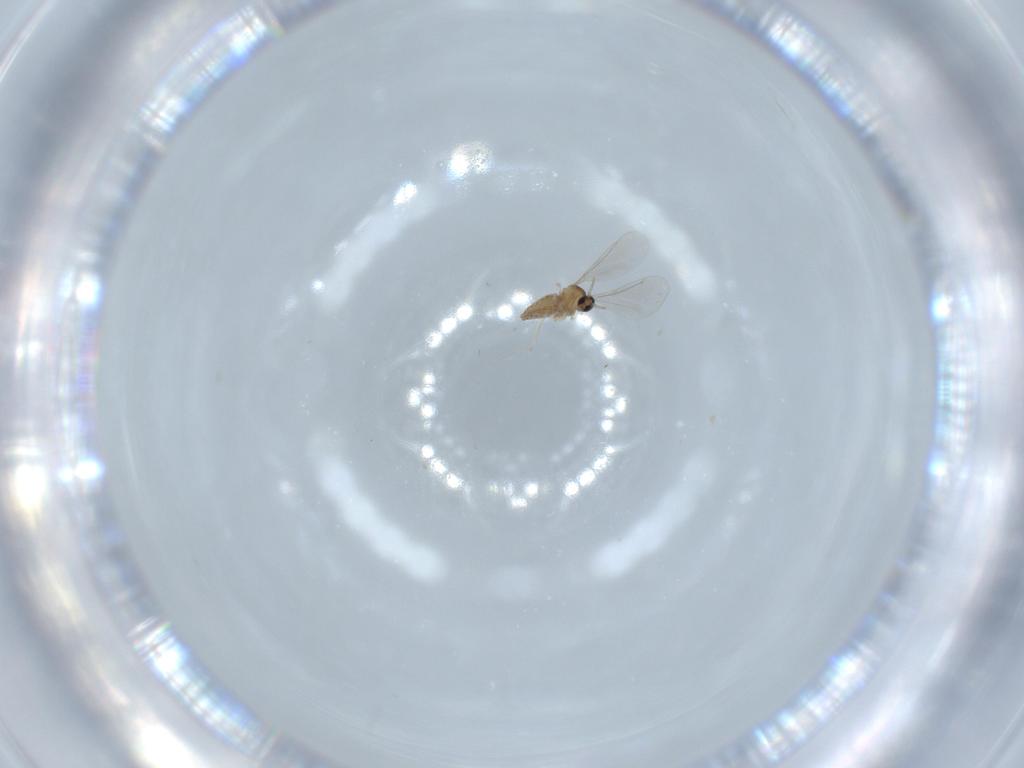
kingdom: Animalia
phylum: Arthropoda
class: Insecta
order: Diptera
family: Cecidomyiidae
